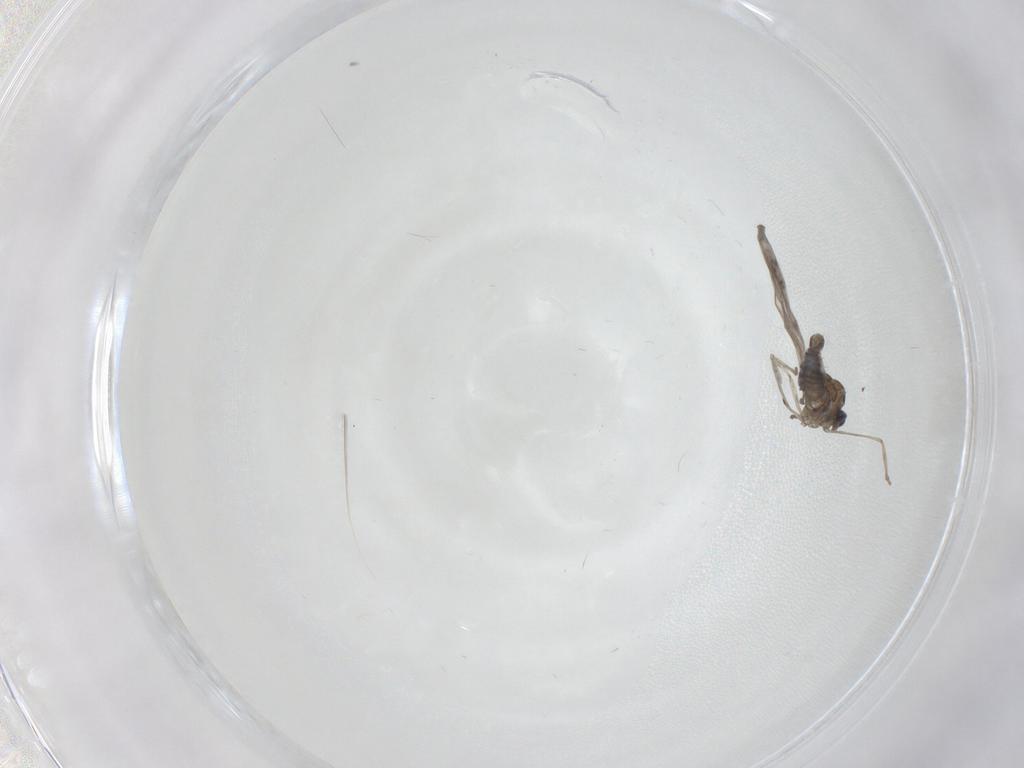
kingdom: Animalia
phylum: Arthropoda
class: Insecta
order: Diptera
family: Cecidomyiidae
